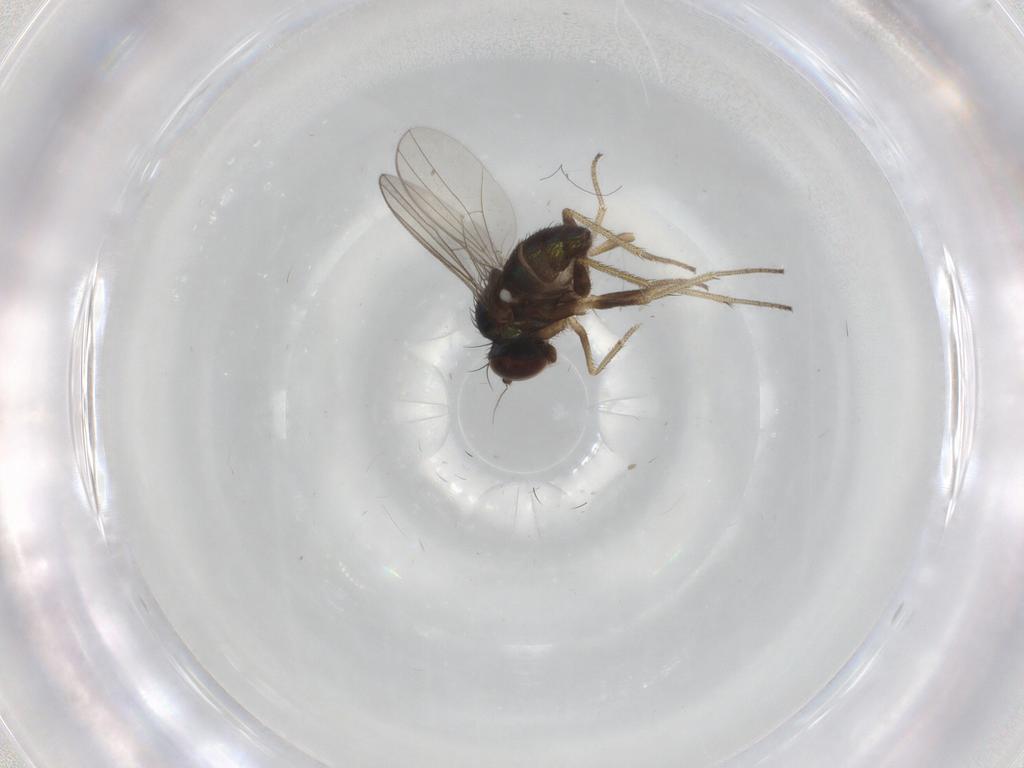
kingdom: Animalia
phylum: Arthropoda
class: Insecta
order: Diptera
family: Dolichopodidae
